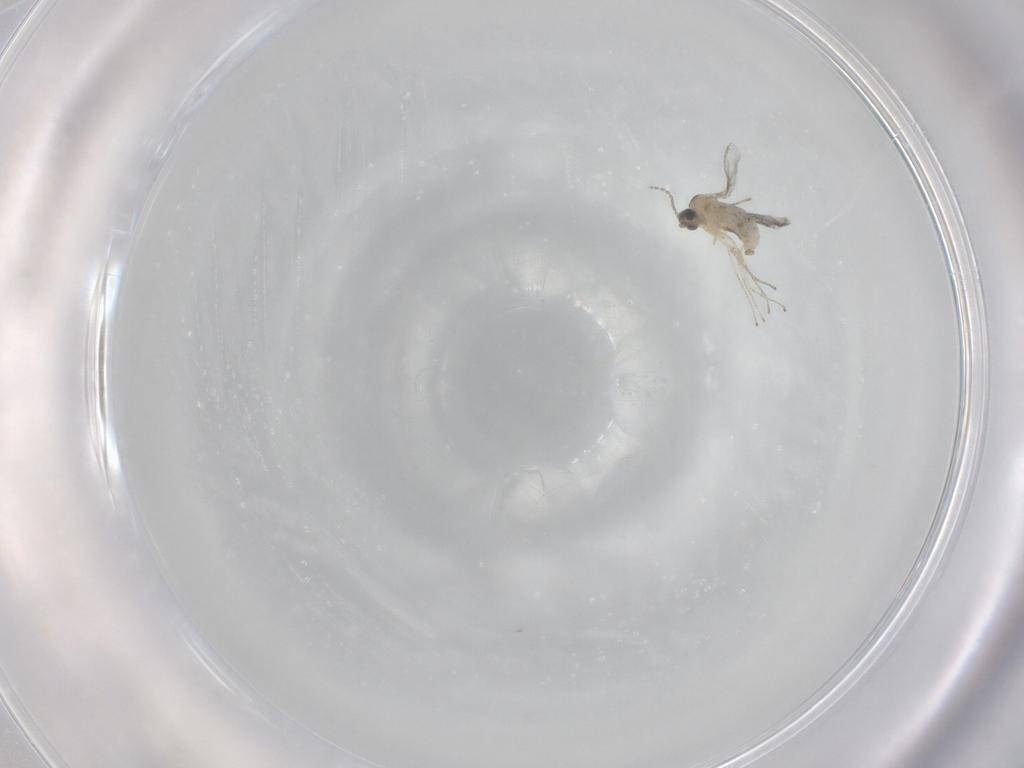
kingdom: Animalia
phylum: Arthropoda
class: Insecta
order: Diptera
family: Cecidomyiidae
